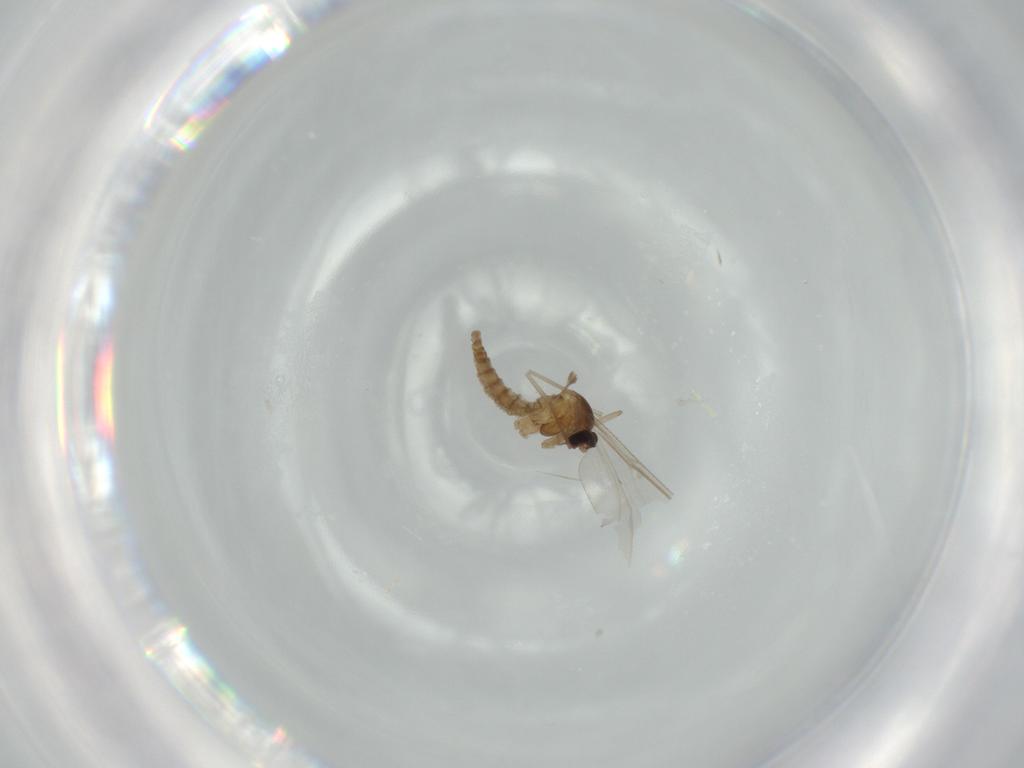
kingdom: Animalia
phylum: Arthropoda
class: Insecta
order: Diptera
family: Cecidomyiidae
